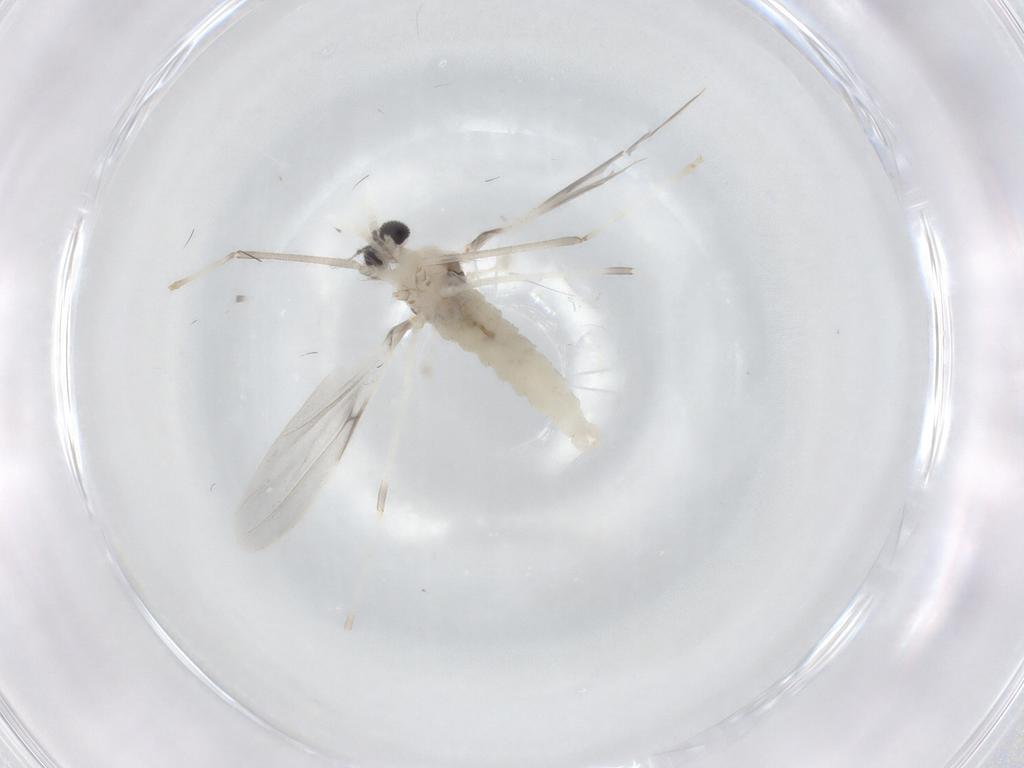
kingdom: Animalia
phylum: Arthropoda
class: Insecta
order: Diptera
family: Cecidomyiidae
